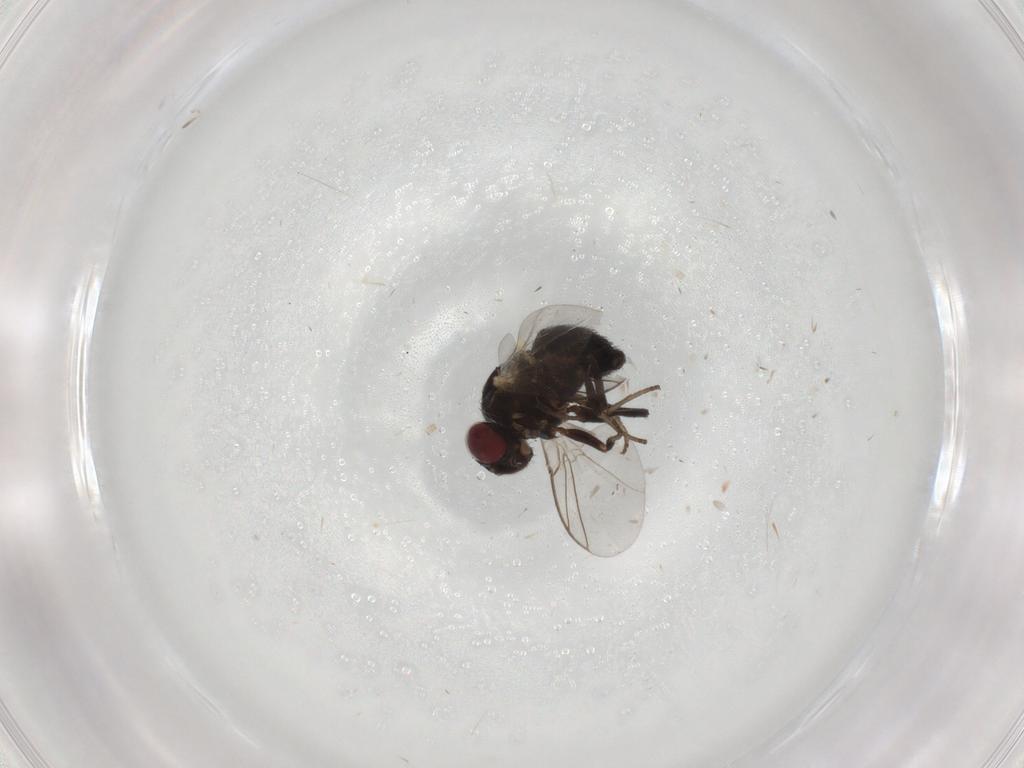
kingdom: Animalia
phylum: Arthropoda
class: Insecta
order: Diptera
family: Agromyzidae
